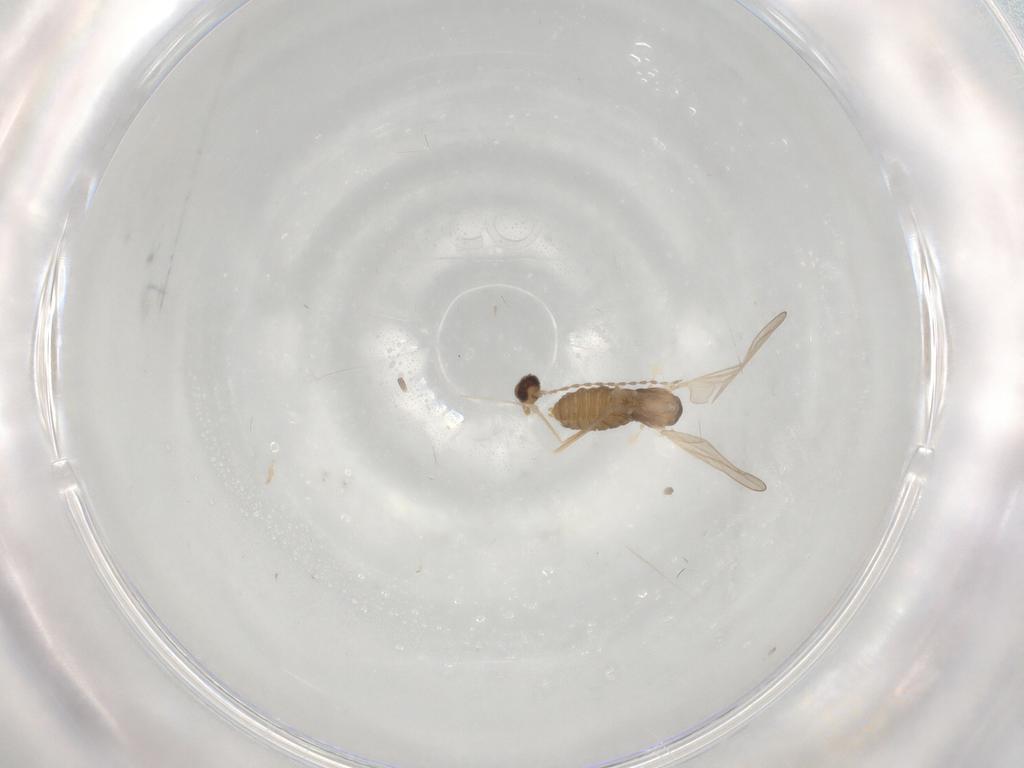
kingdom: Animalia
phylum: Arthropoda
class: Insecta
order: Diptera
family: Cecidomyiidae
